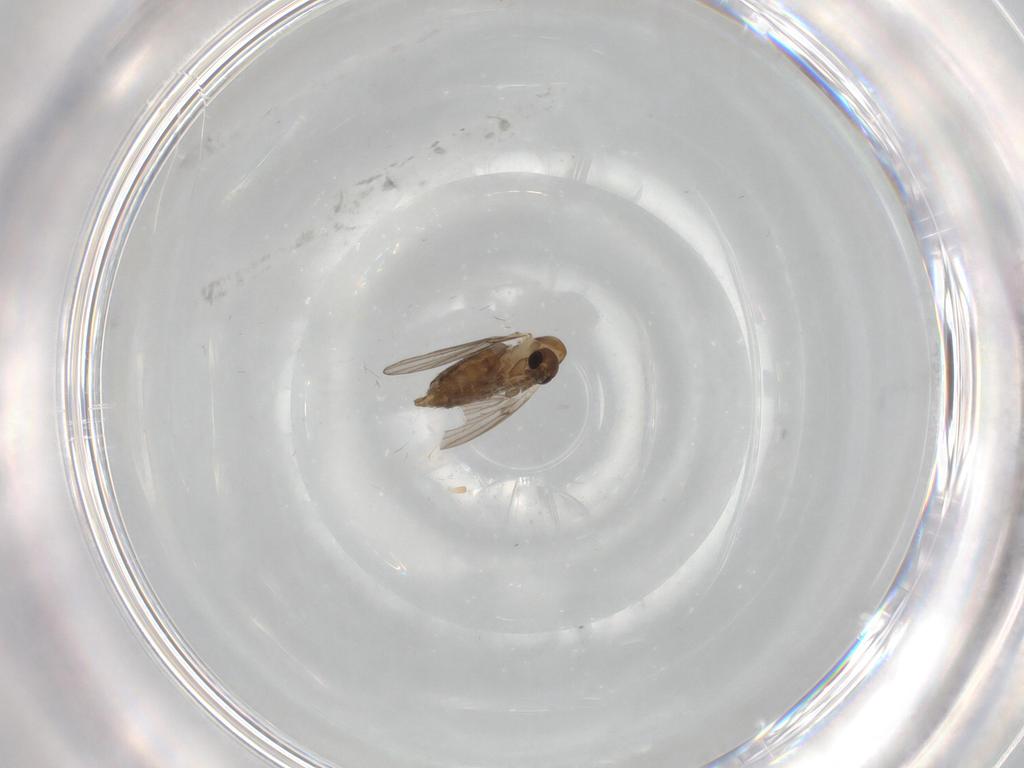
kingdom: Animalia
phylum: Arthropoda
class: Insecta
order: Diptera
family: Psychodidae
